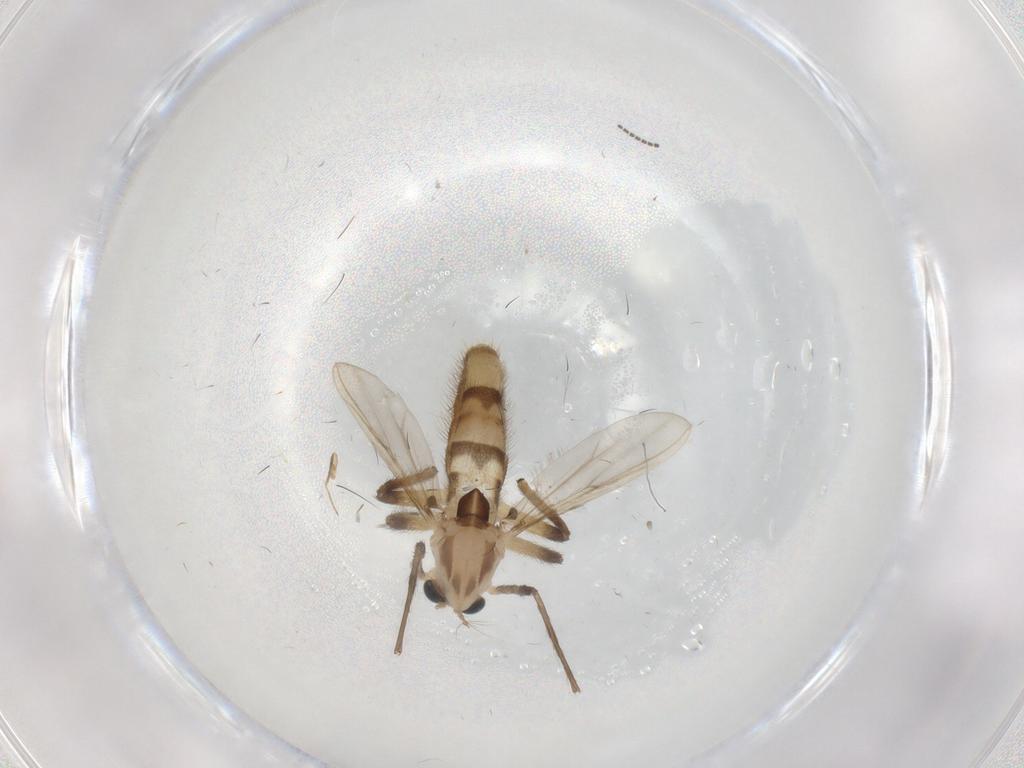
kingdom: Animalia
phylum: Arthropoda
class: Insecta
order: Diptera
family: Chironomidae
